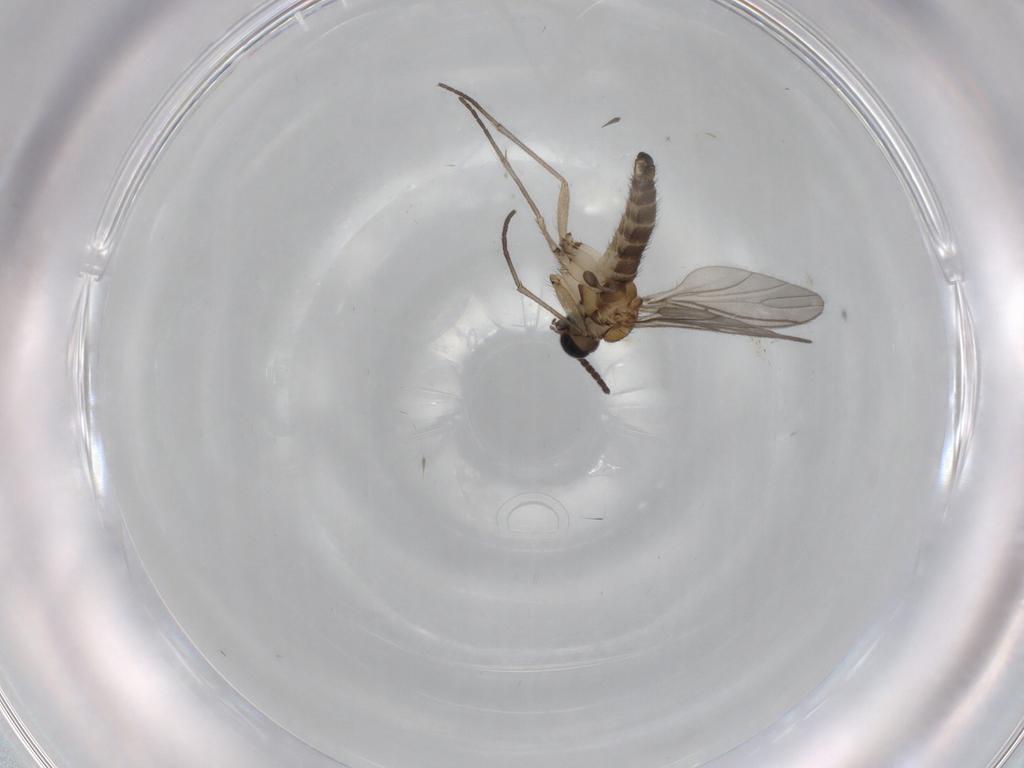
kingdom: Animalia
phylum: Arthropoda
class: Insecta
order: Diptera
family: Sciaridae
